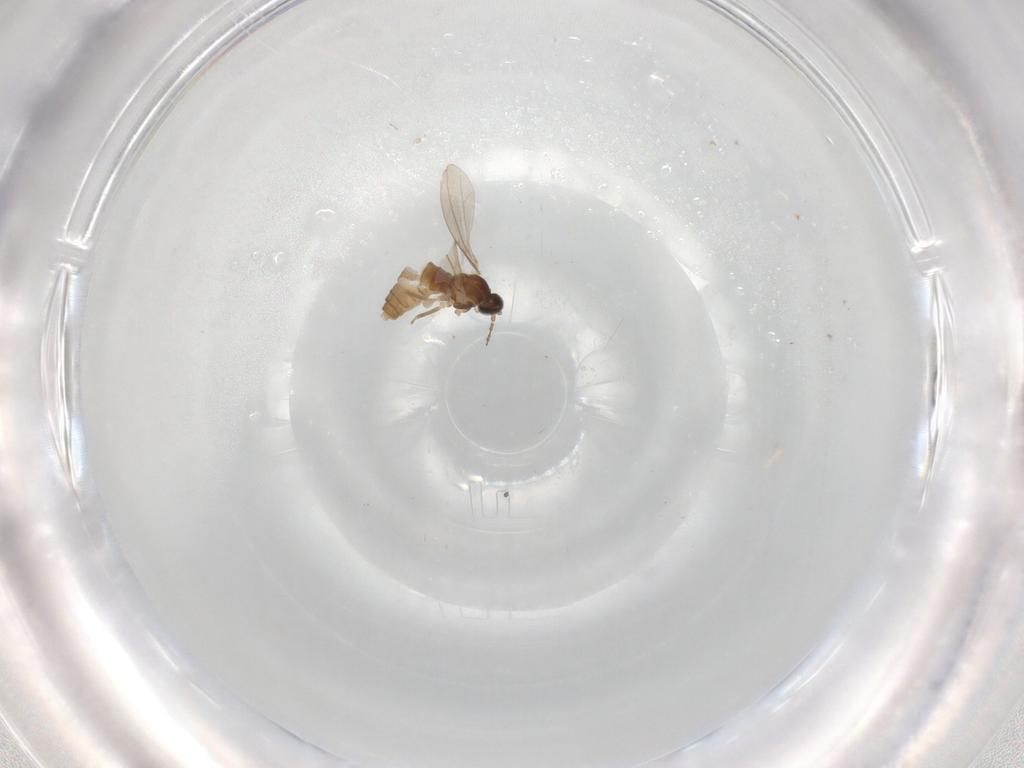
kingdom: Animalia
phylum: Arthropoda
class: Insecta
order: Diptera
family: Cecidomyiidae
